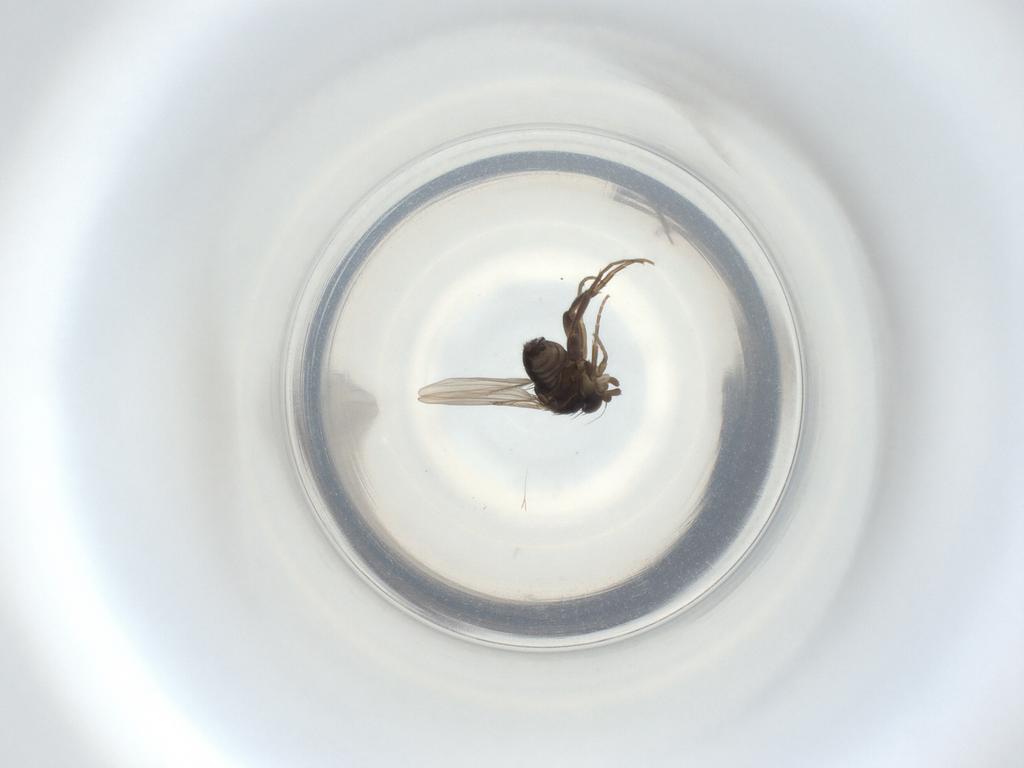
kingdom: Animalia
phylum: Arthropoda
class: Insecta
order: Diptera
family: Phoridae
